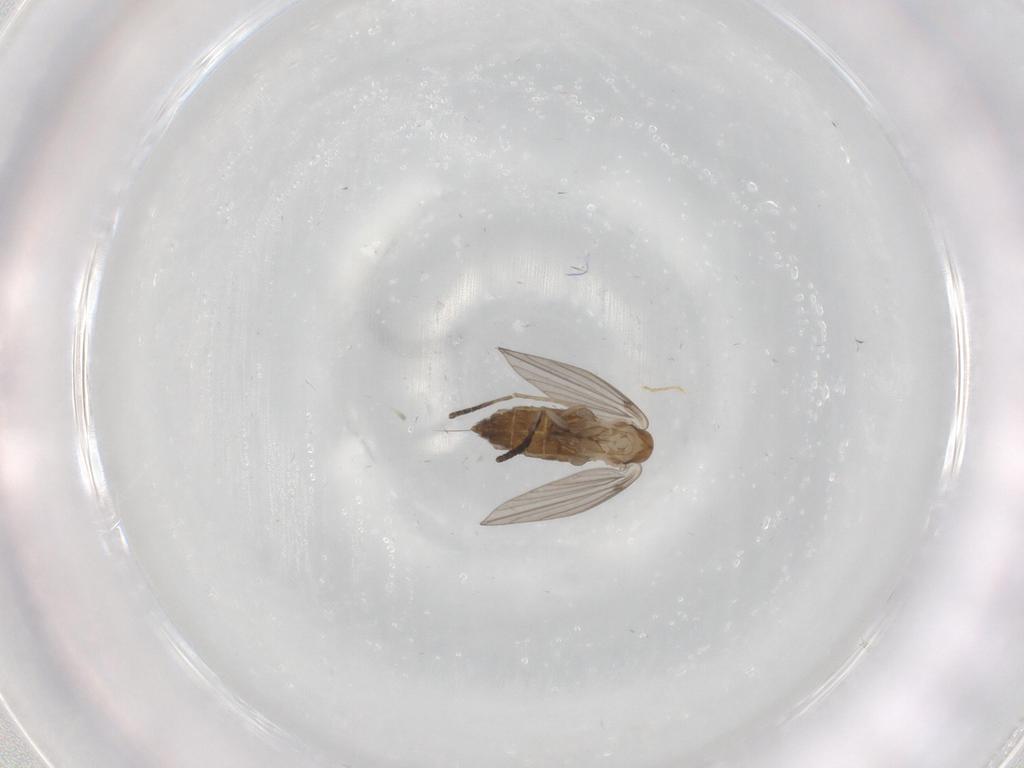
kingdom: Animalia
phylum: Arthropoda
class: Insecta
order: Diptera
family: Psychodidae
